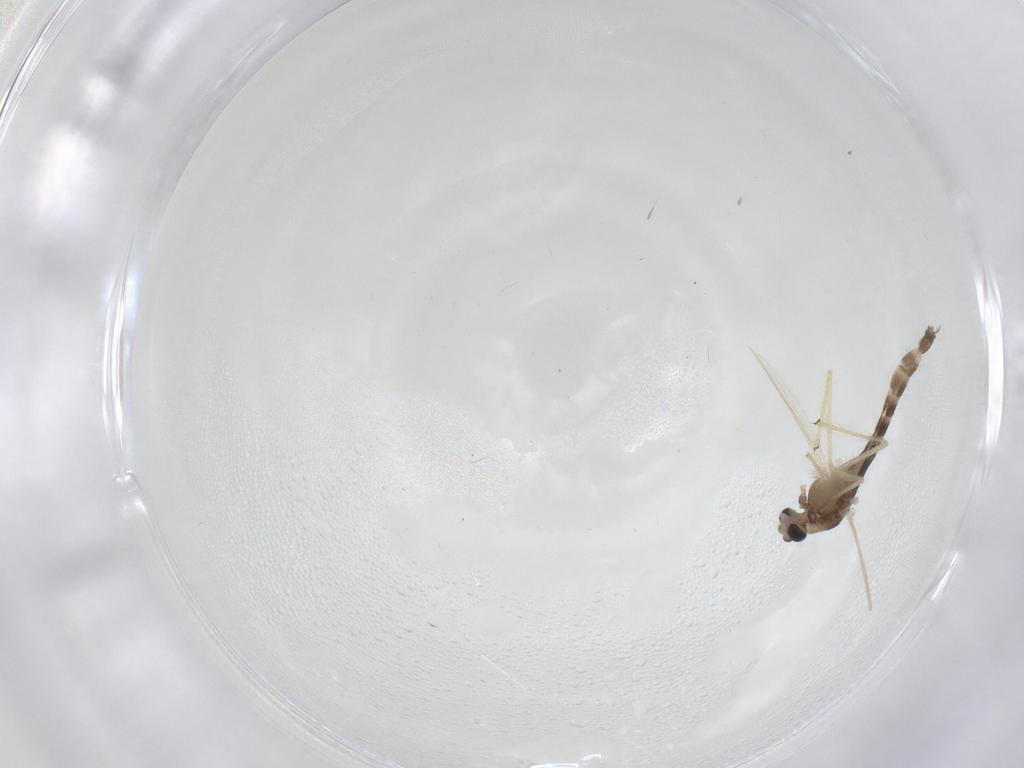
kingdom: Animalia
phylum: Arthropoda
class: Insecta
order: Diptera
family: Chironomidae
